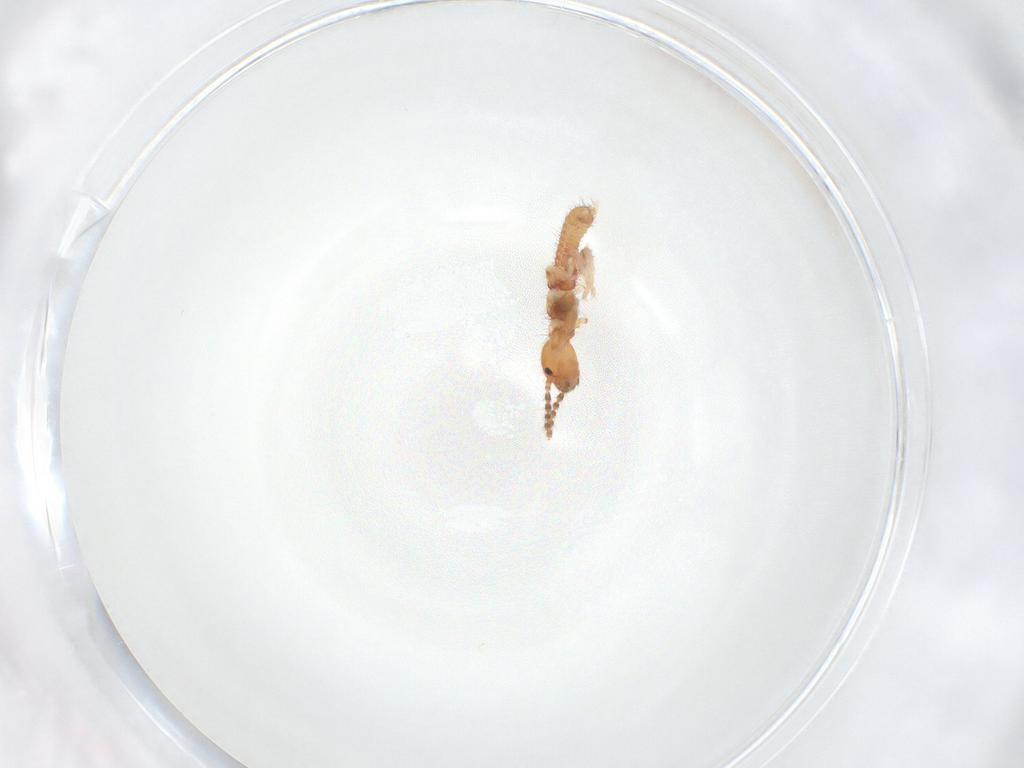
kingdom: Animalia
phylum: Arthropoda
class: Insecta
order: Embioptera
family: Anisembiidae
